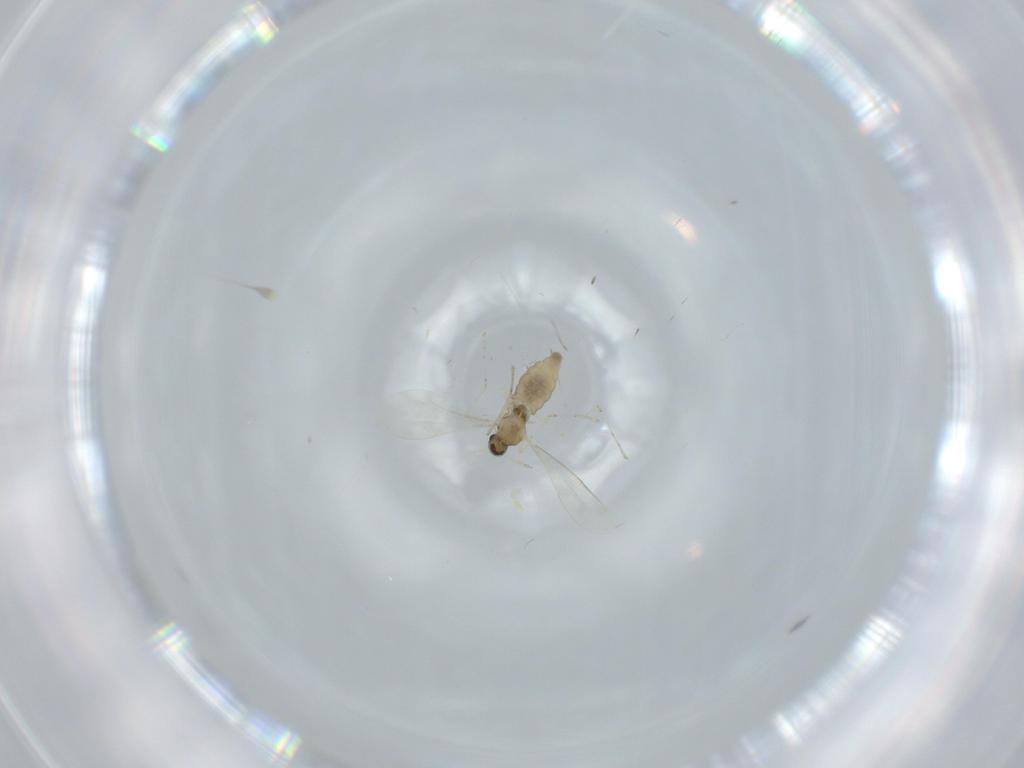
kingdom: Animalia
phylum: Arthropoda
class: Insecta
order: Diptera
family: Cecidomyiidae
